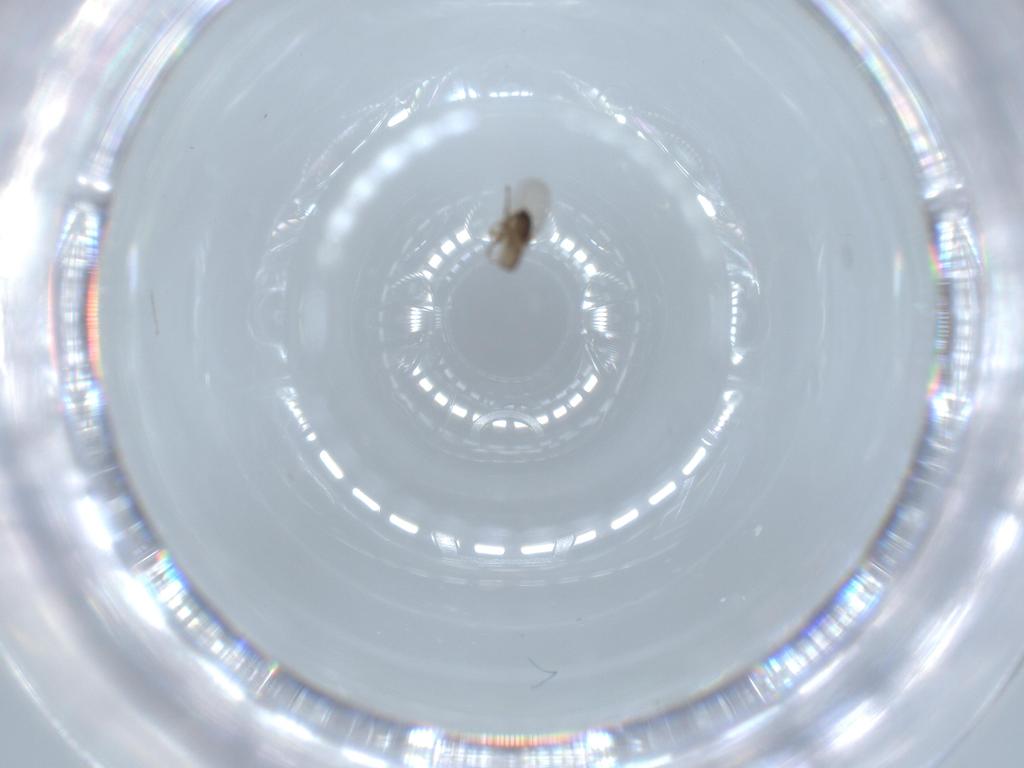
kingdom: Animalia
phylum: Arthropoda
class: Insecta
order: Diptera
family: Phoridae
